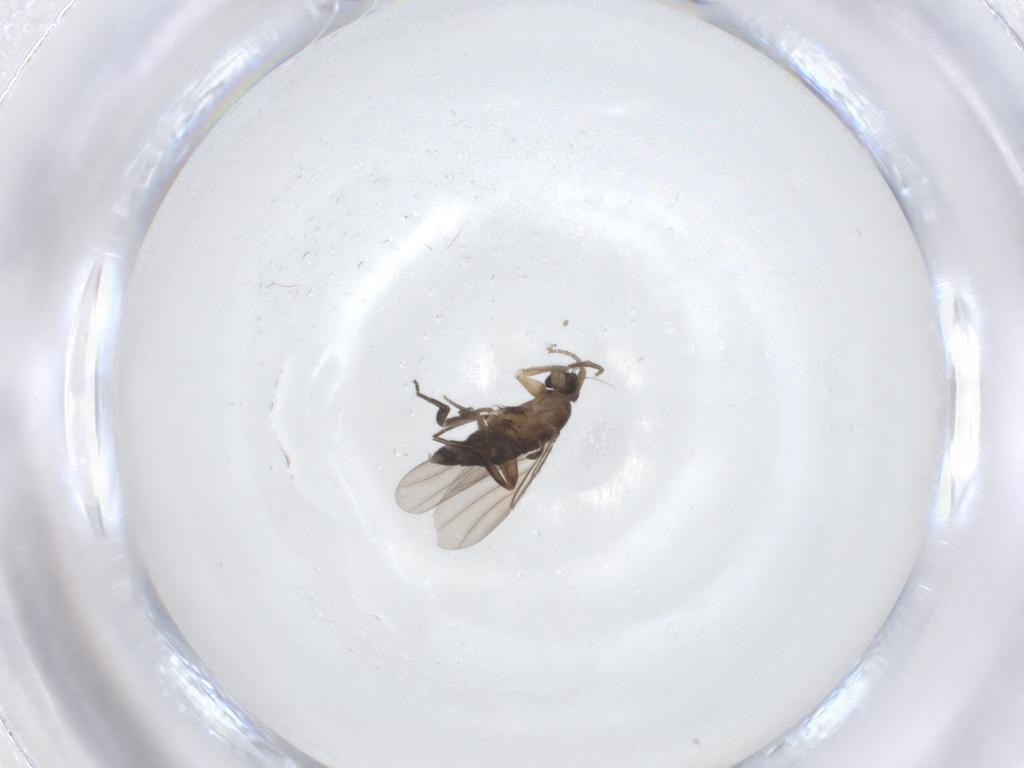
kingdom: Animalia
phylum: Arthropoda
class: Insecta
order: Diptera
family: Phoridae
